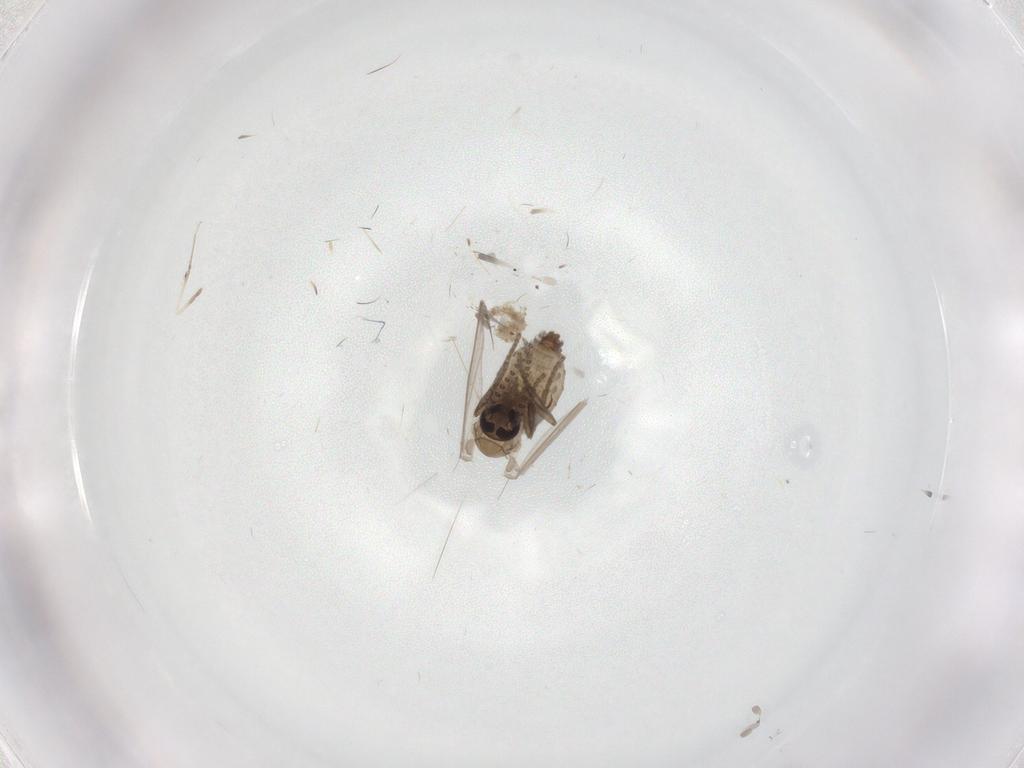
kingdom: Animalia
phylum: Arthropoda
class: Insecta
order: Diptera
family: Psychodidae
